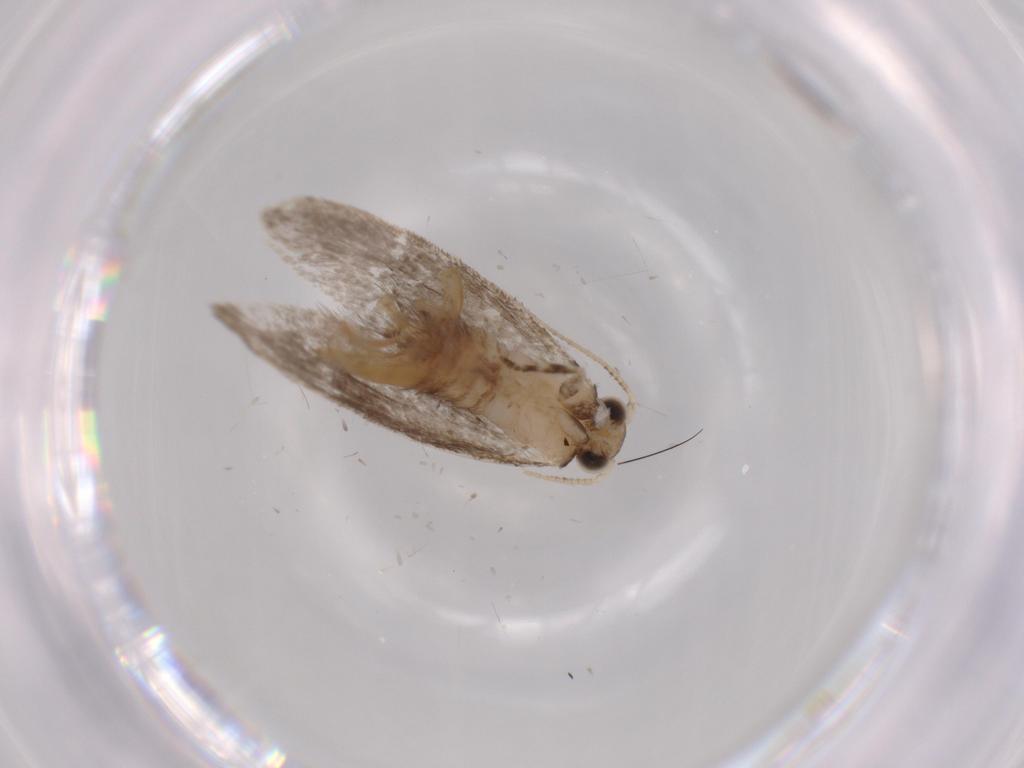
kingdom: Animalia
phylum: Arthropoda
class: Insecta
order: Lepidoptera
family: Tineidae
